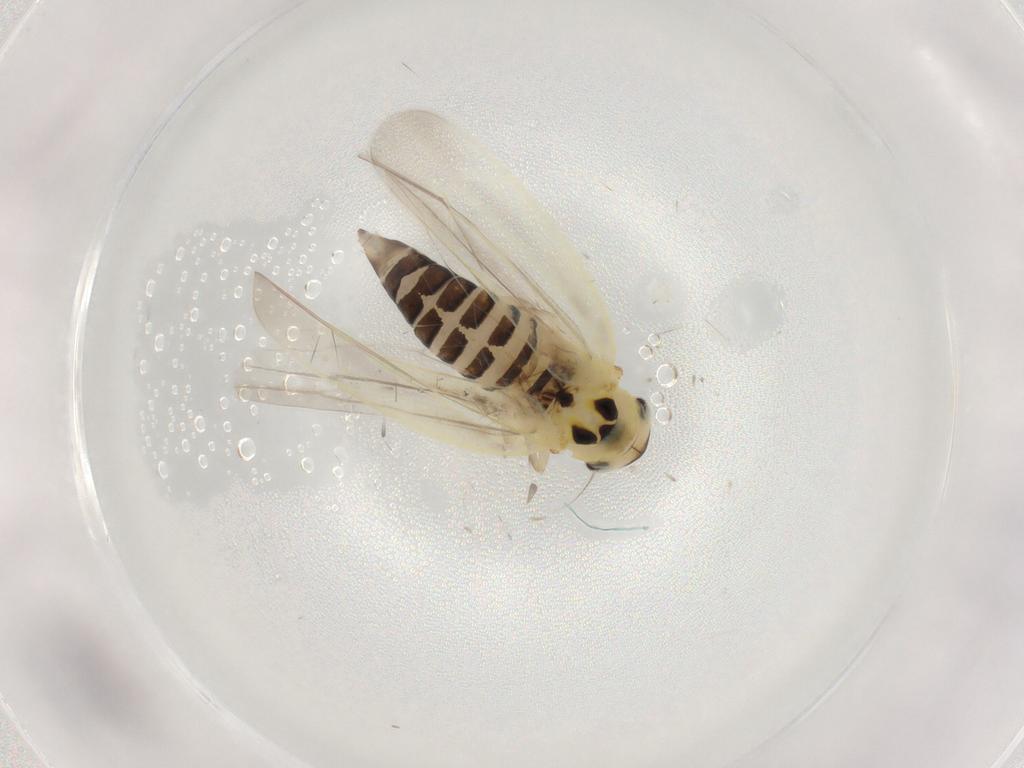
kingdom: Animalia
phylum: Arthropoda
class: Insecta
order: Hemiptera
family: Cicadellidae
